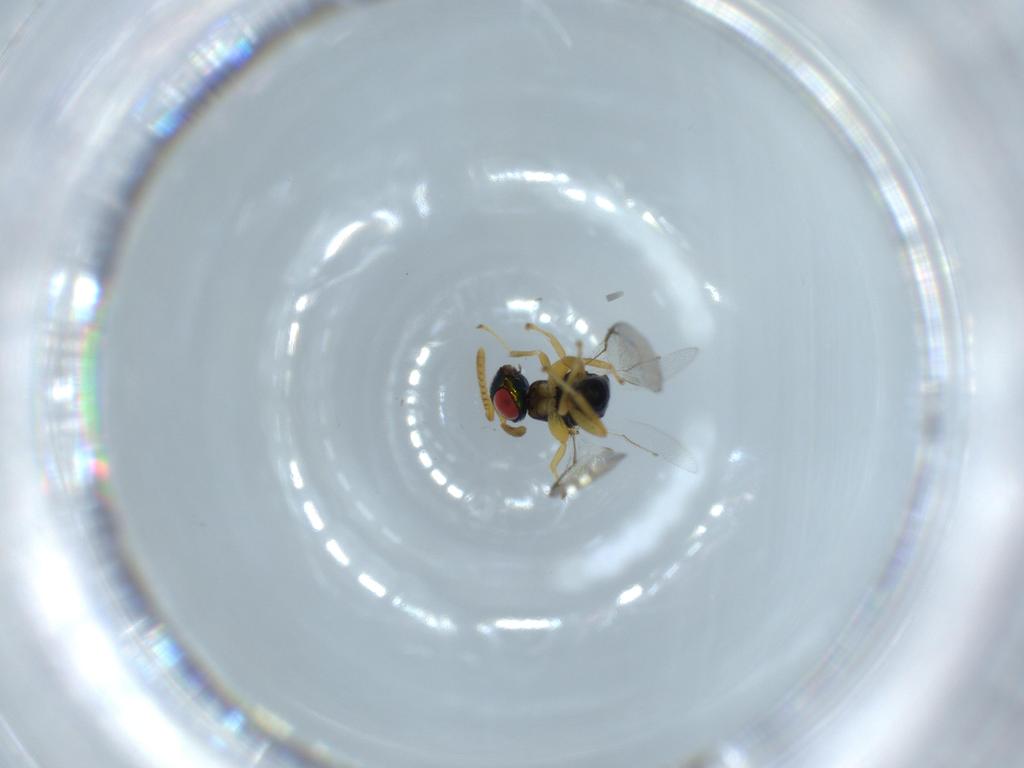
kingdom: Animalia
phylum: Arthropoda
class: Insecta
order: Hymenoptera
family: Torymidae
